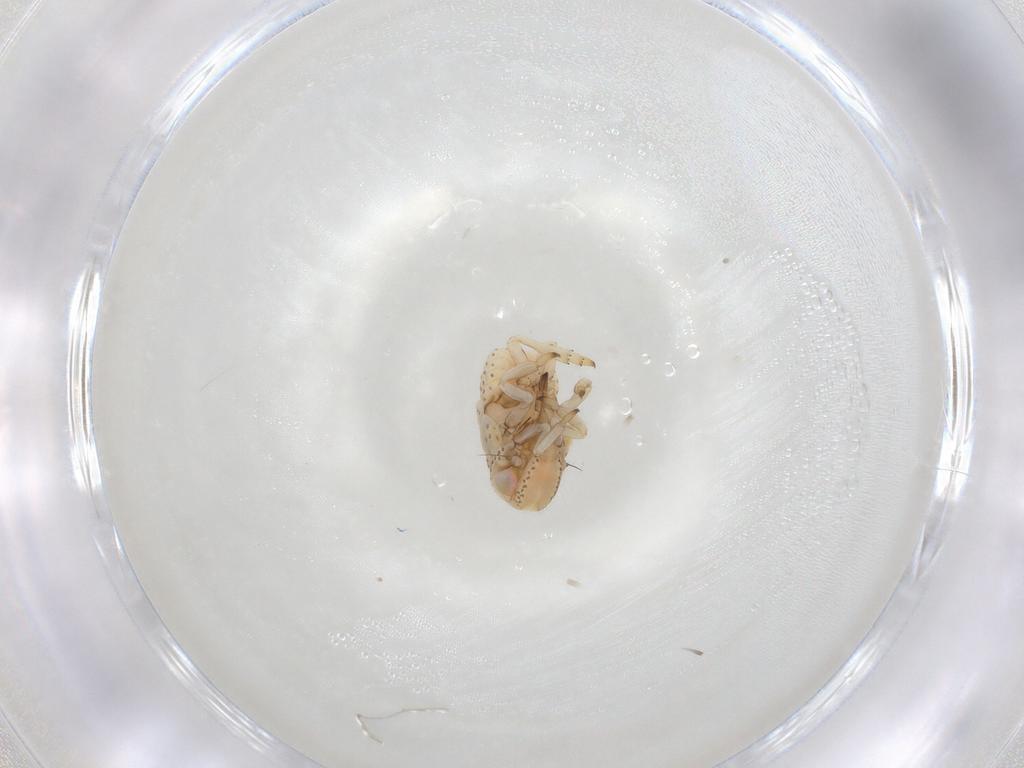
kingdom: Animalia
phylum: Arthropoda
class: Insecta
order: Hemiptera
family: Nogodinidae
